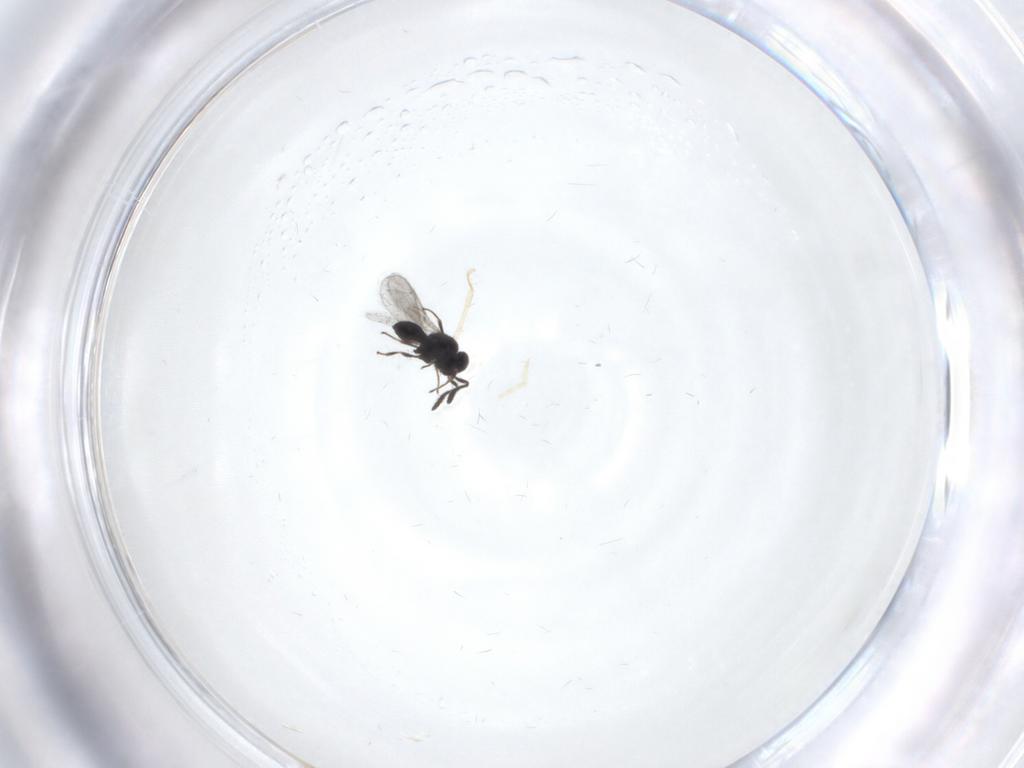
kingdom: Animalia
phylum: Arthropoda
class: Insecta
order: Hymenoptera
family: Scelionidae
